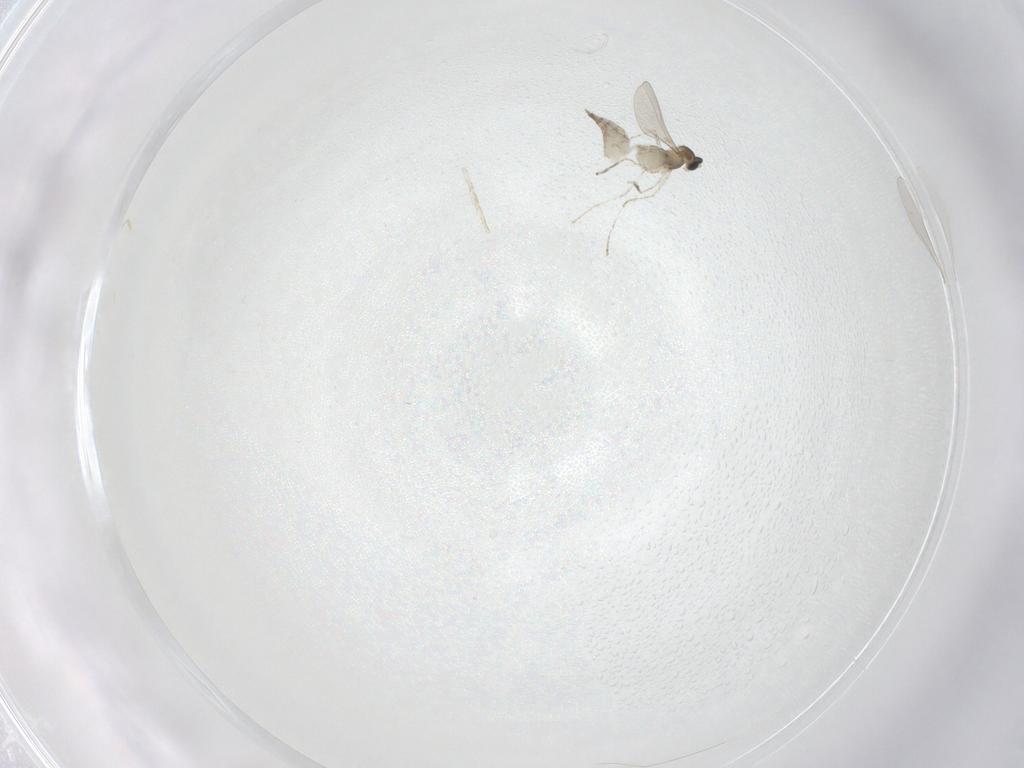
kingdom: Animalia
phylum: Arthropoda
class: Insecta
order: Diptera
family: Cecidomyiidae
